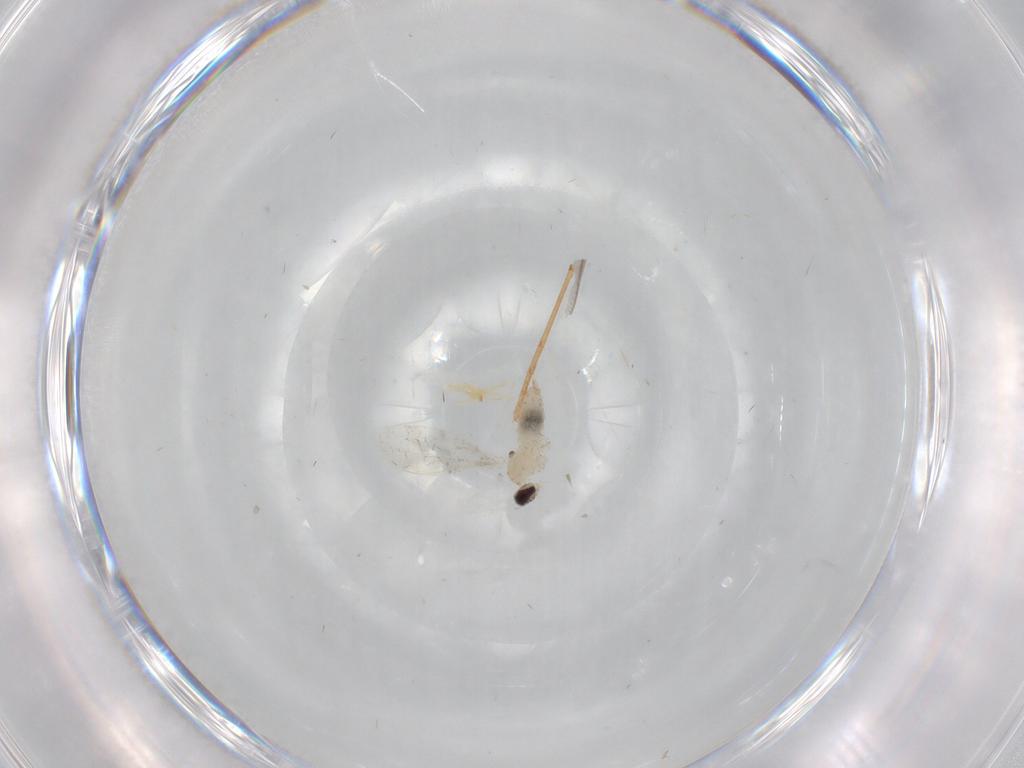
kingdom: Animalia
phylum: Arthropoda
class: Insecta
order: Diptera
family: Cecidomyiidae
